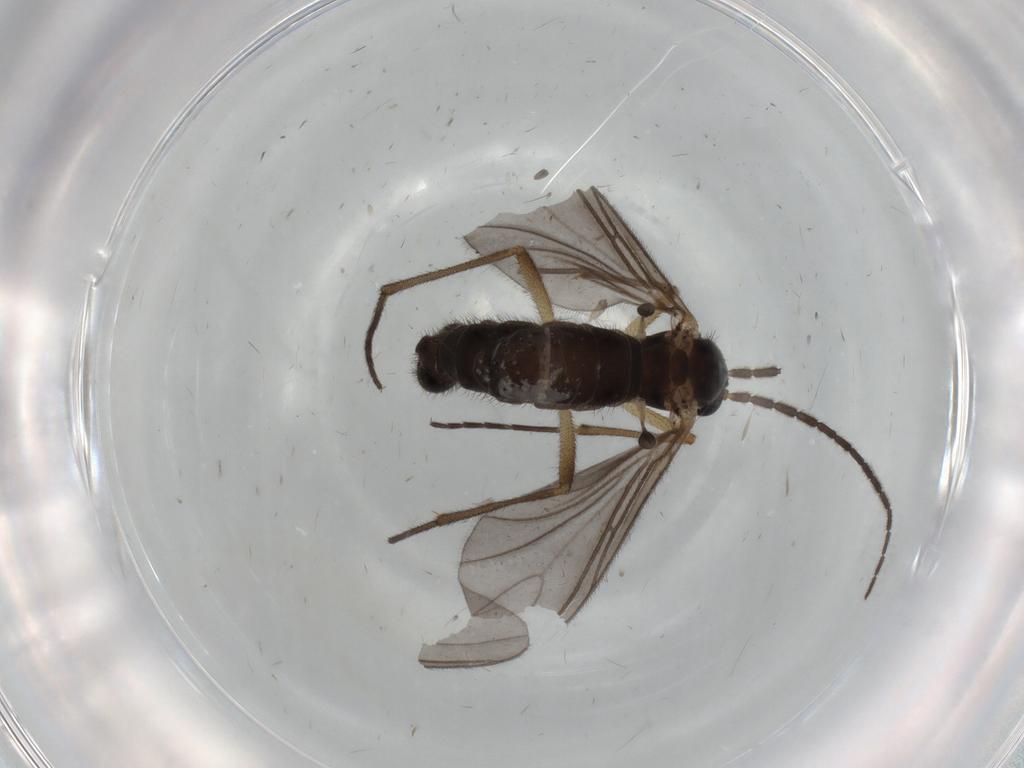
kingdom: Animalia
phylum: Arthropoda
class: Insecta
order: Diptera
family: Sciaridae
